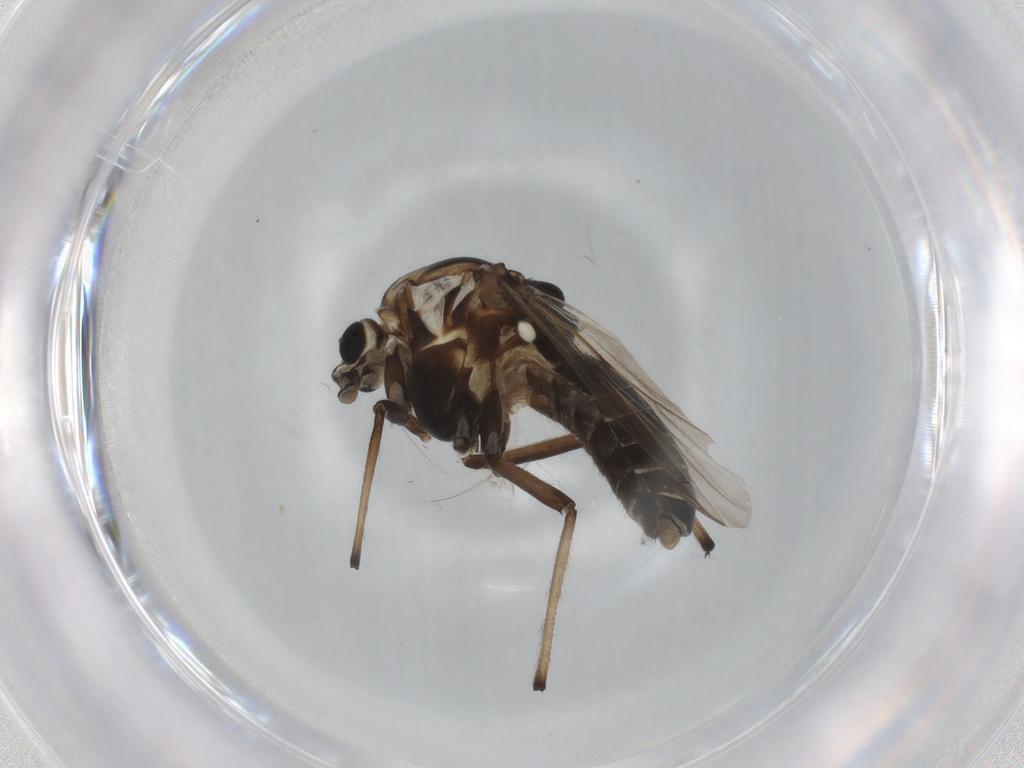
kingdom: Animalia
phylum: Arthropoda
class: Insecta
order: Diptera
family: Chironomidae
